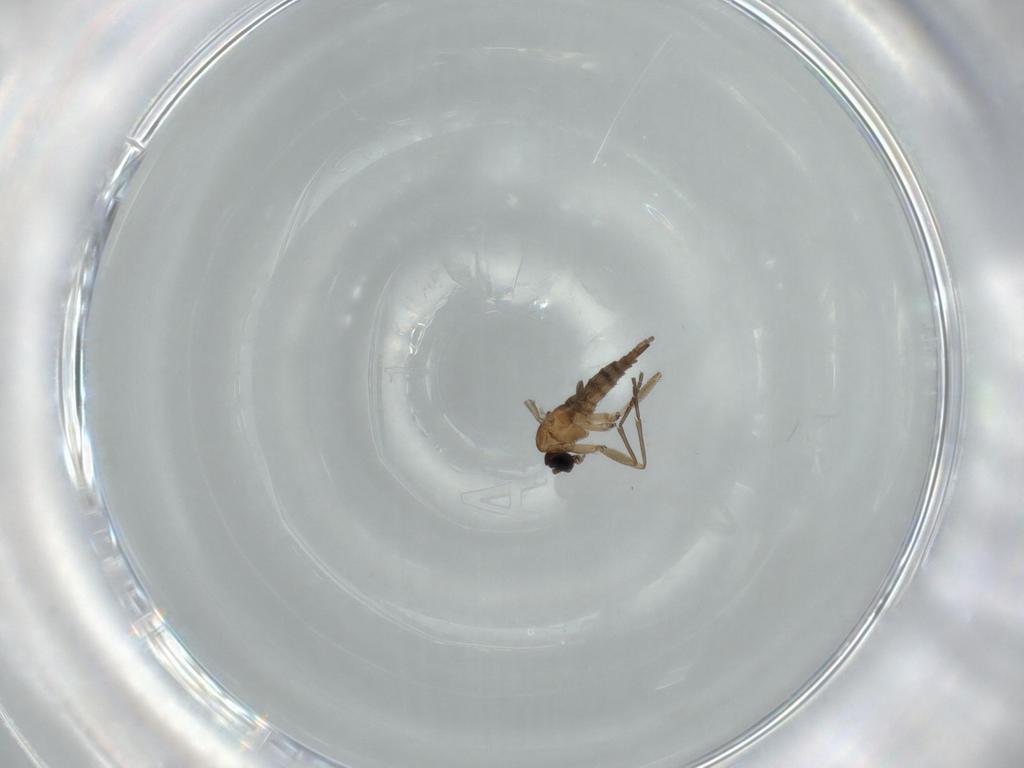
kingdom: Animalia
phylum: Arthropoda
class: Insecta
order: Diptera
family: Sciaridae
